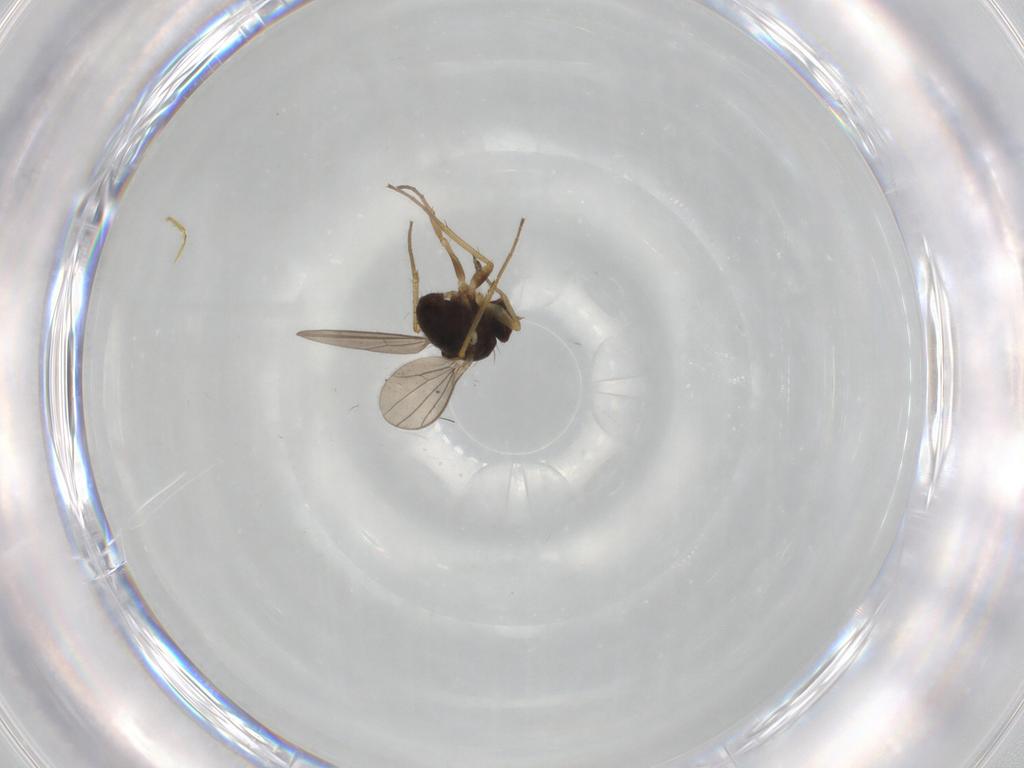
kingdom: Animalia
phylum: Arthropoda
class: Insecta
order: Diptera
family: Dolichopodidae
